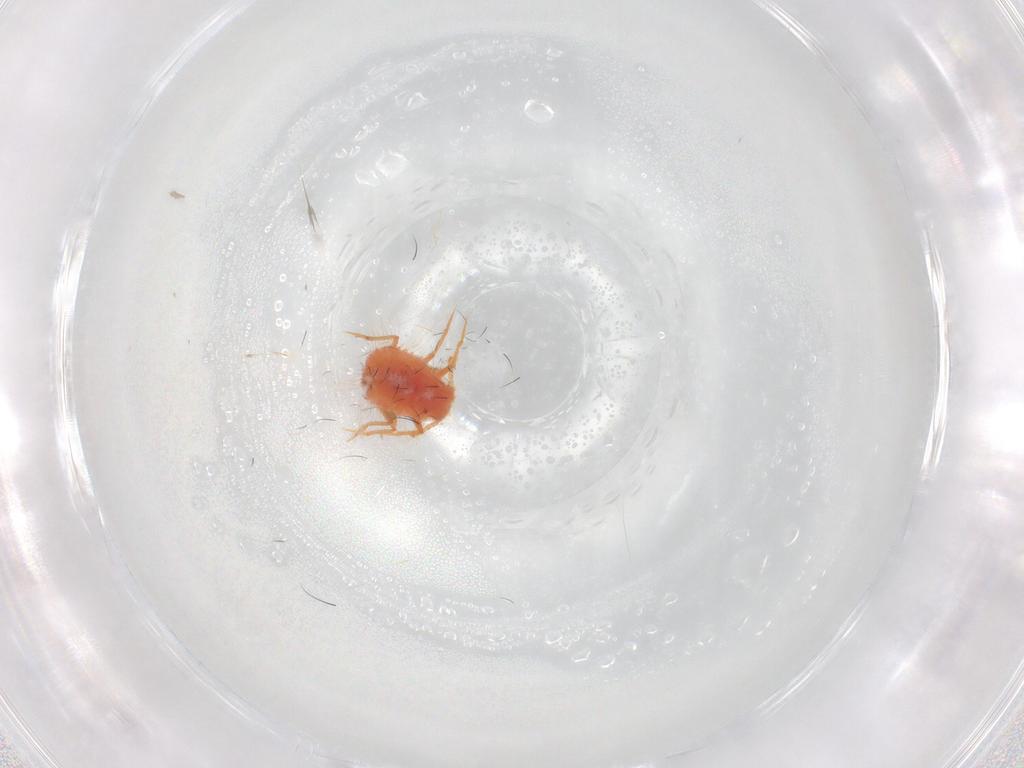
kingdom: Animalia
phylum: Arthropoda
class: Insecta
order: Hemiptera
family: Coccoidea_incertae_sedis
